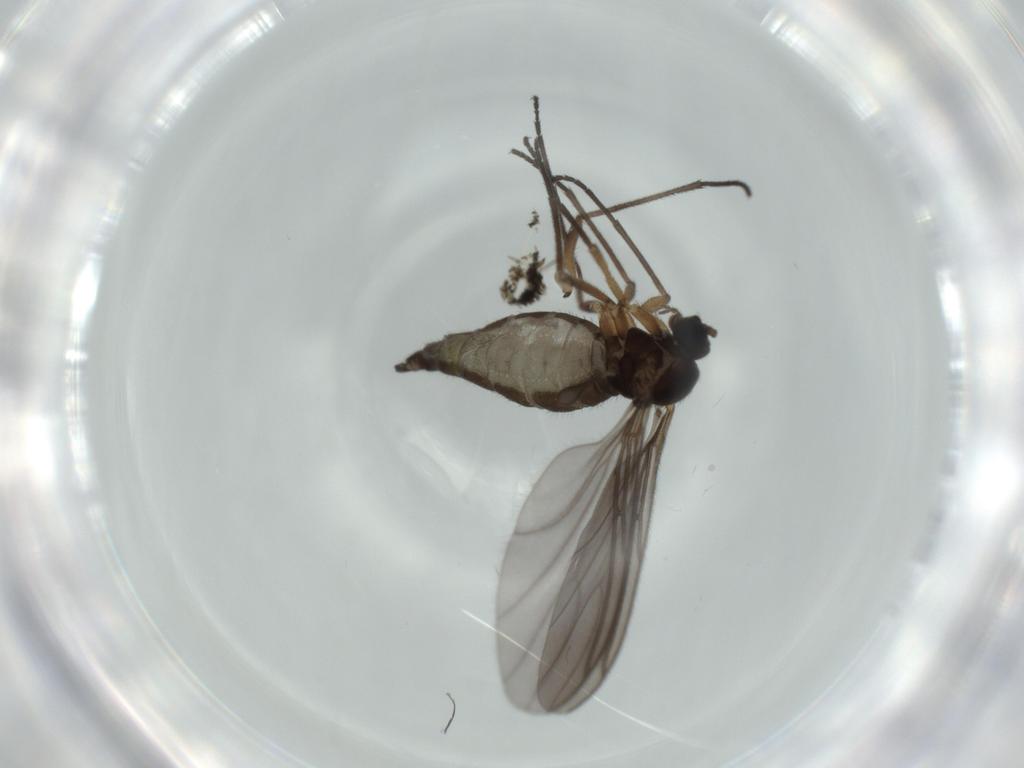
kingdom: Animalia
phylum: Arthropoda
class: Insecta
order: Diptera
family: Sciaridae
